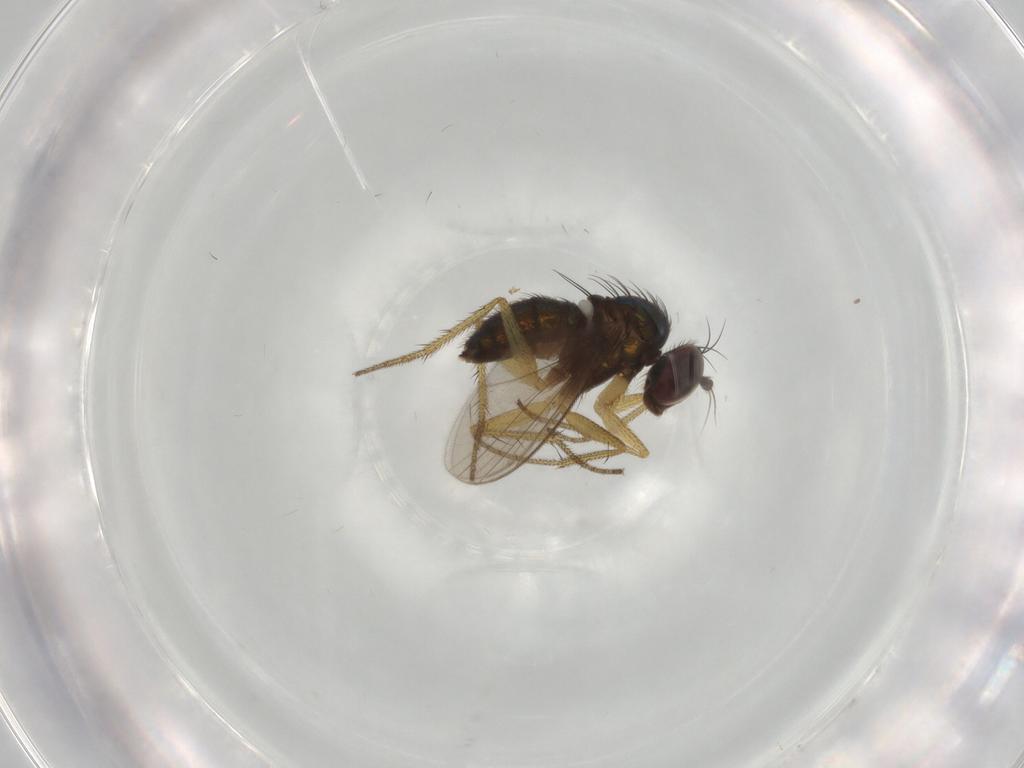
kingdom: Animalia
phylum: Arthropoda
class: Insecta
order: Diptera
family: Dolichopodidae
